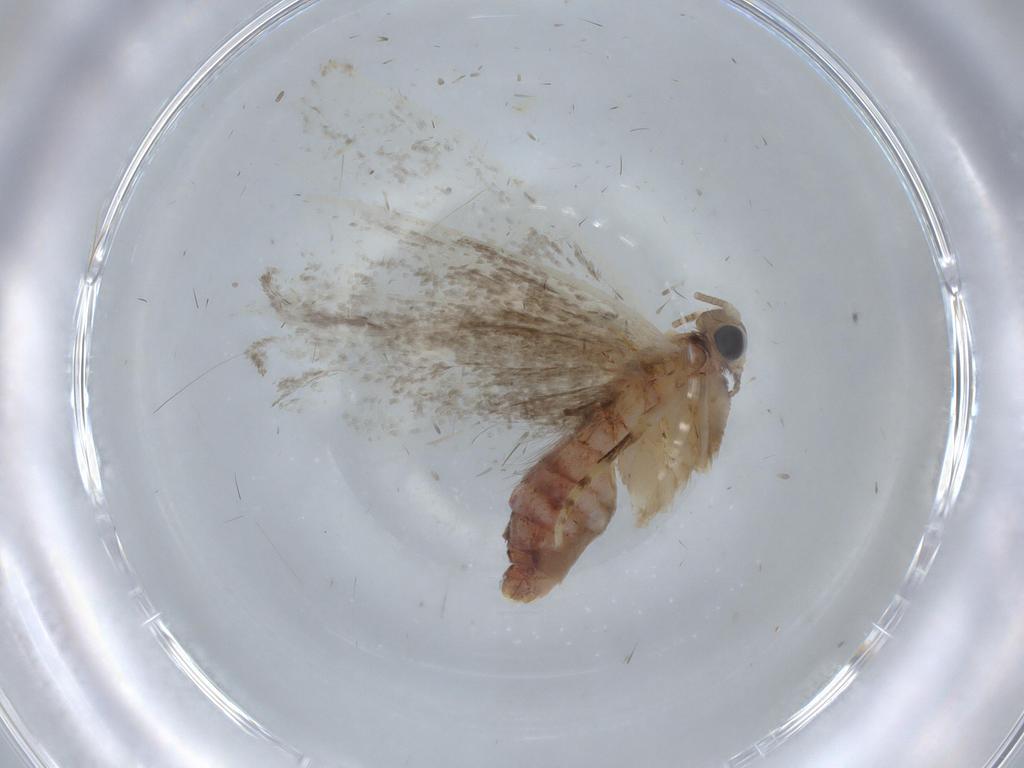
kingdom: Animalia
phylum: Arthropoda
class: Insecta
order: Lepidoptera
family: Dryadaulidae
